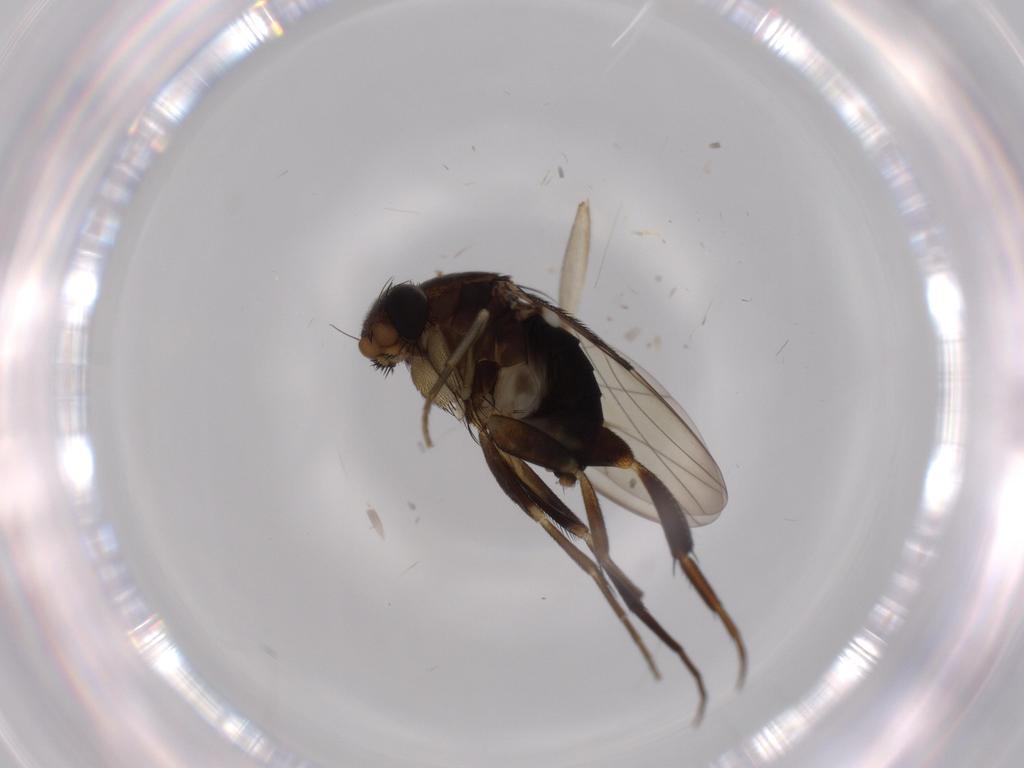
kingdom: Animalia
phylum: Arthropoda
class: Insecta
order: Diptera
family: Phoridae
